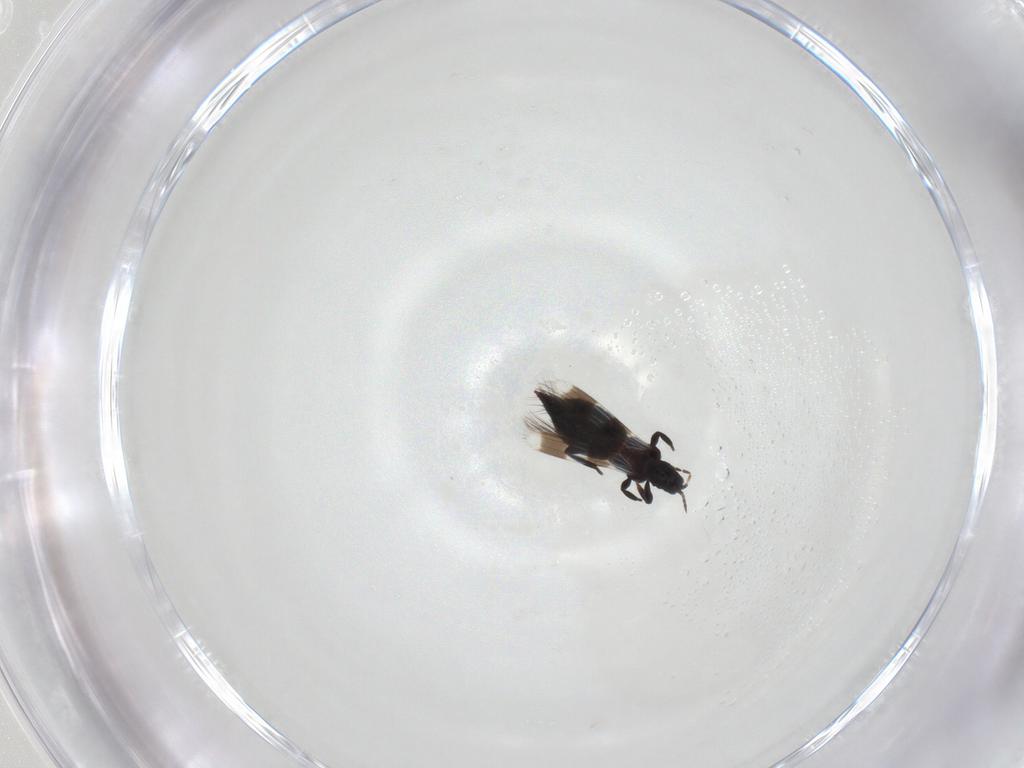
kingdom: Animalia
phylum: Arthropoda
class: Insecta
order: Thysanoptera
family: Aeolothripidae
